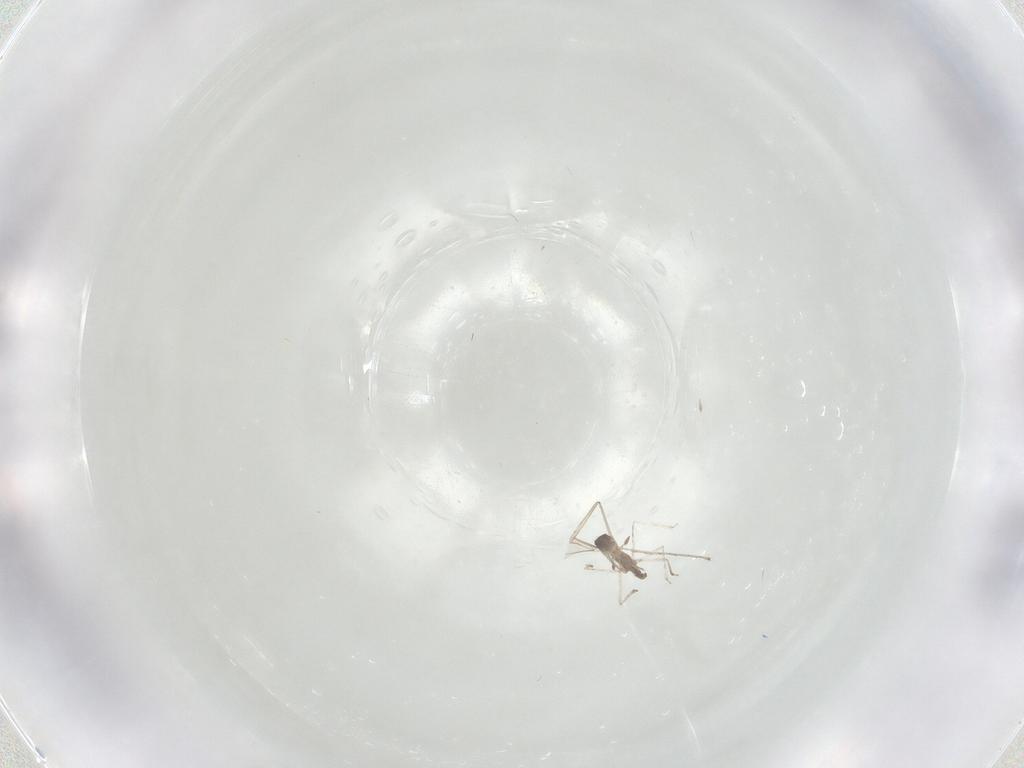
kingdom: Animalia
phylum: Arthropoda
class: Insecta
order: Diptera
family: Cecidomyiidae
